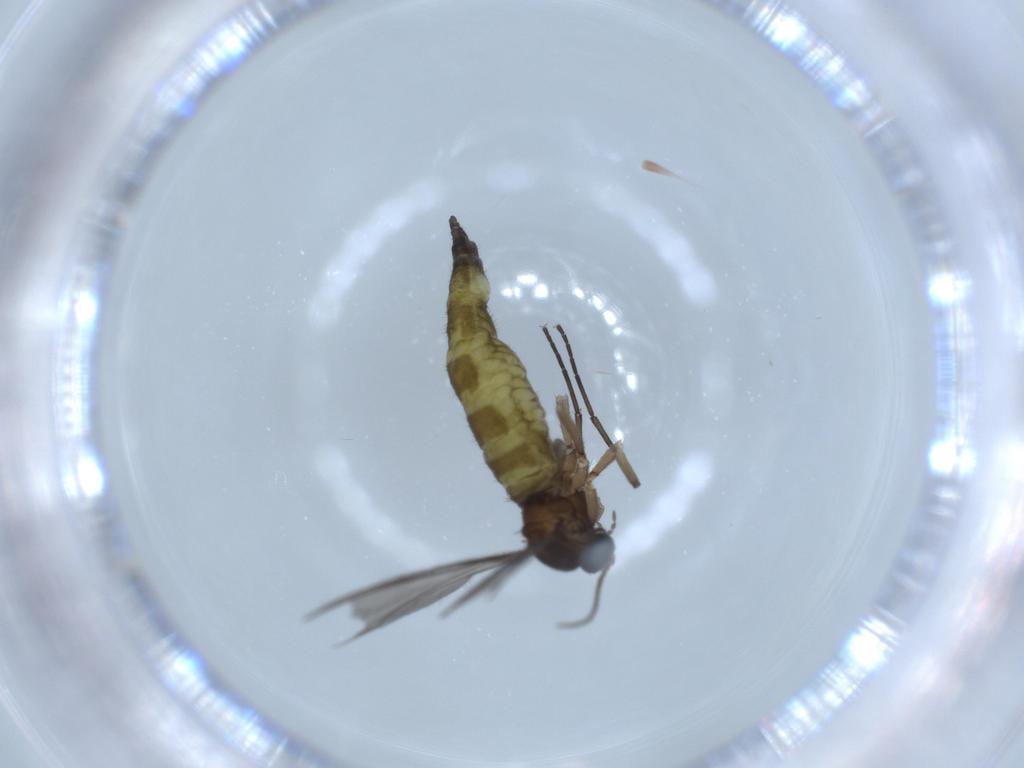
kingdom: Animalia
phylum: Arthropoda
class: Insecta
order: Diptera
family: Sciaridae
